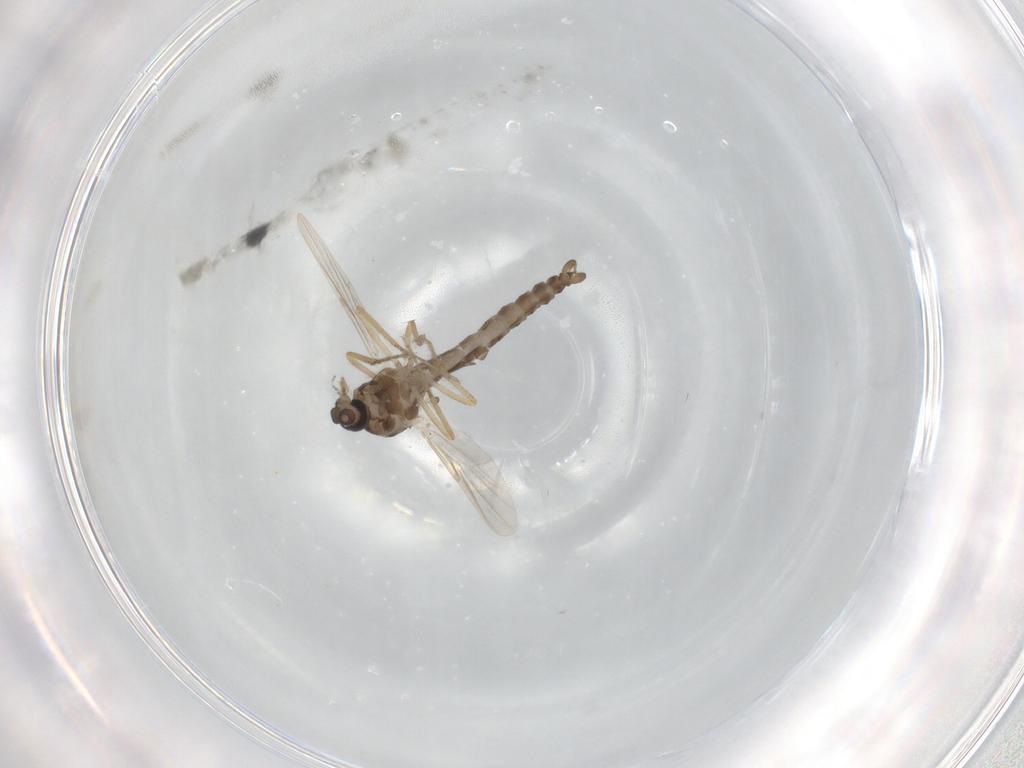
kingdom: Animalia
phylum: Arthropoda
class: Insecta
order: Diptera
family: Ceratopogonidae
